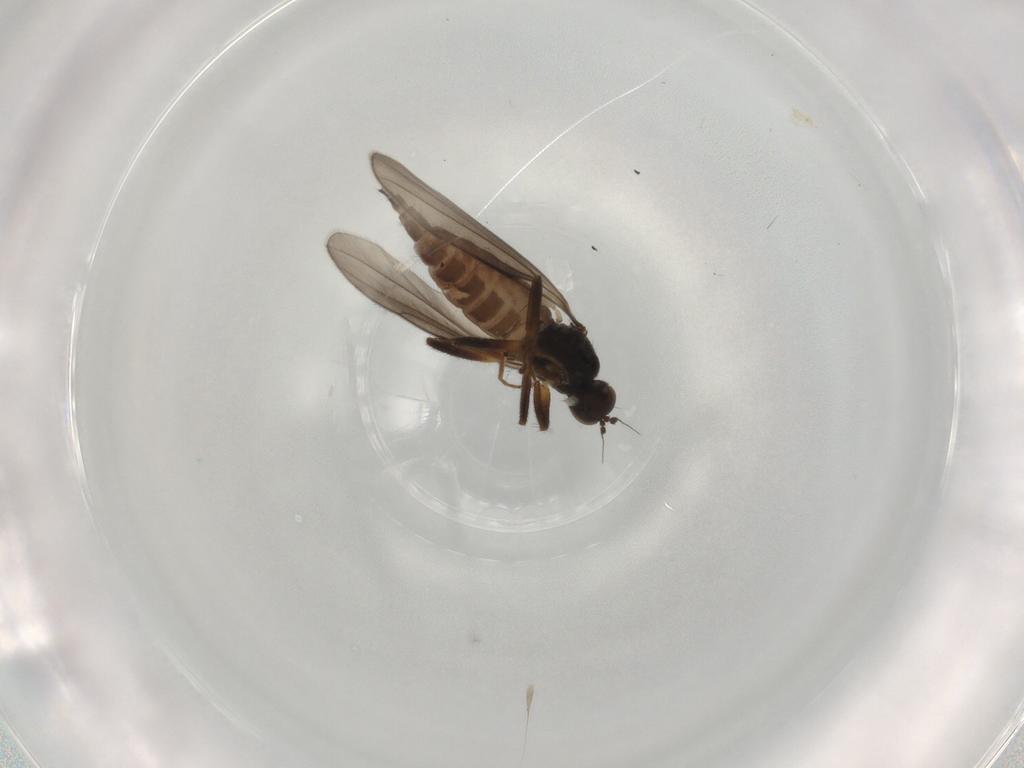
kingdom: Animalia
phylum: Arthropoda
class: Insecta
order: Diptera
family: Hybotidae
